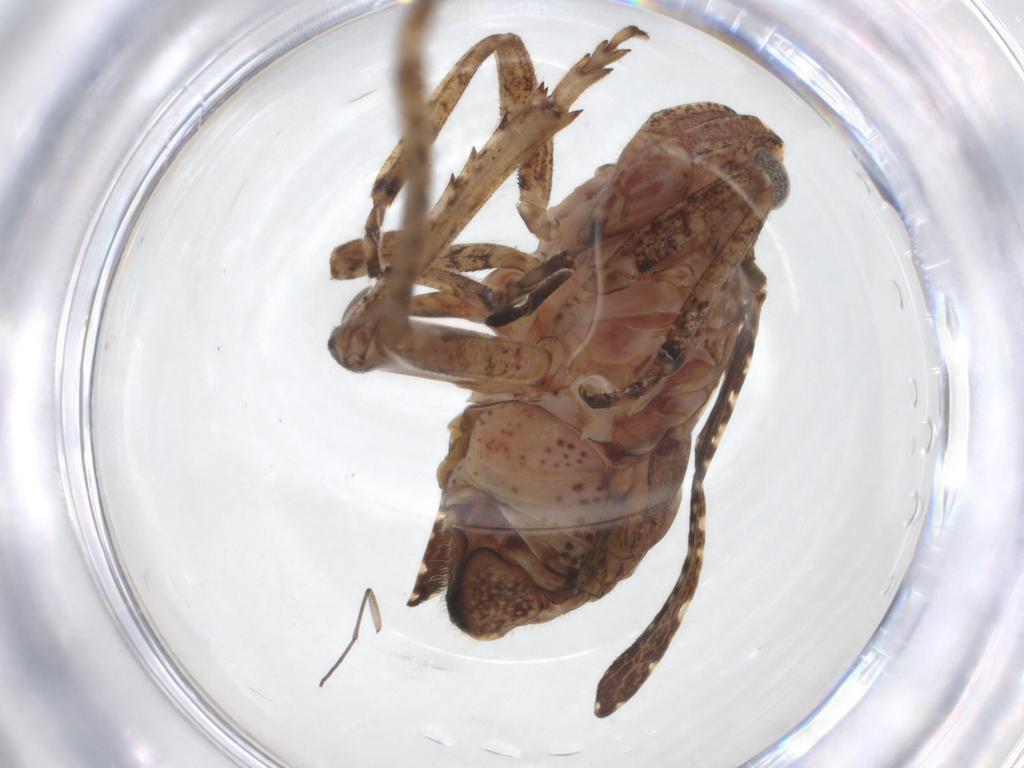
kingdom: Animalia
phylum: Arthropoda
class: Insecta
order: Hemiptera
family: Tropiduchidae
